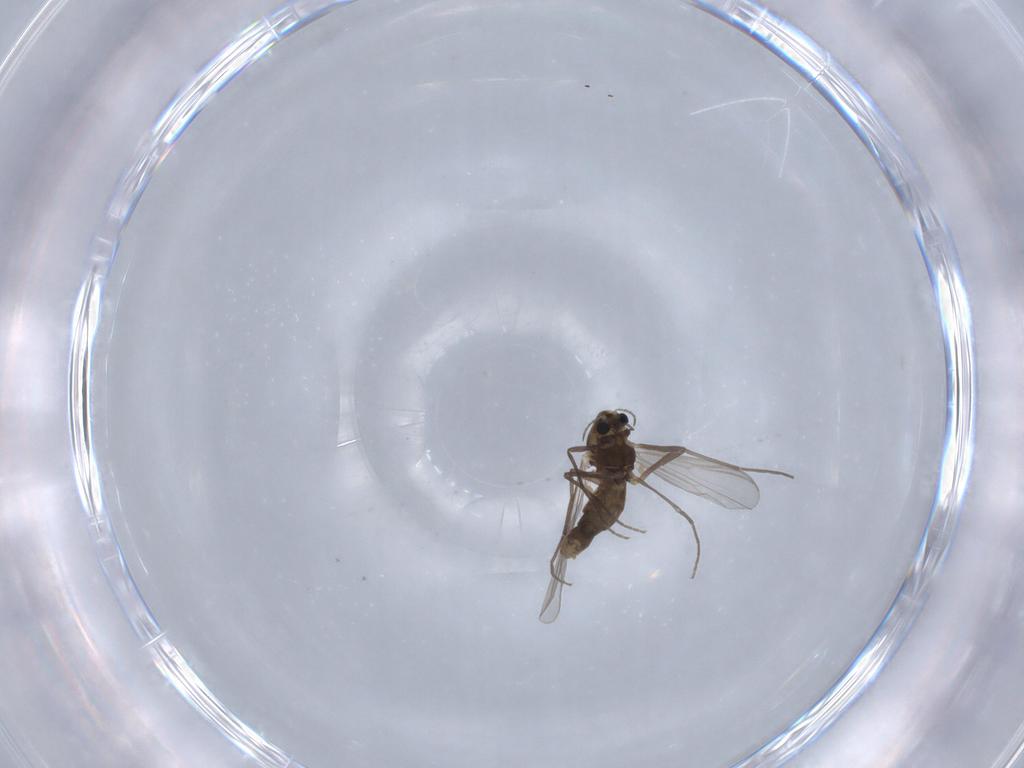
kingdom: Animalia
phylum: Arthropoda
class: Insecta
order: Diptera
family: Chironomidae
